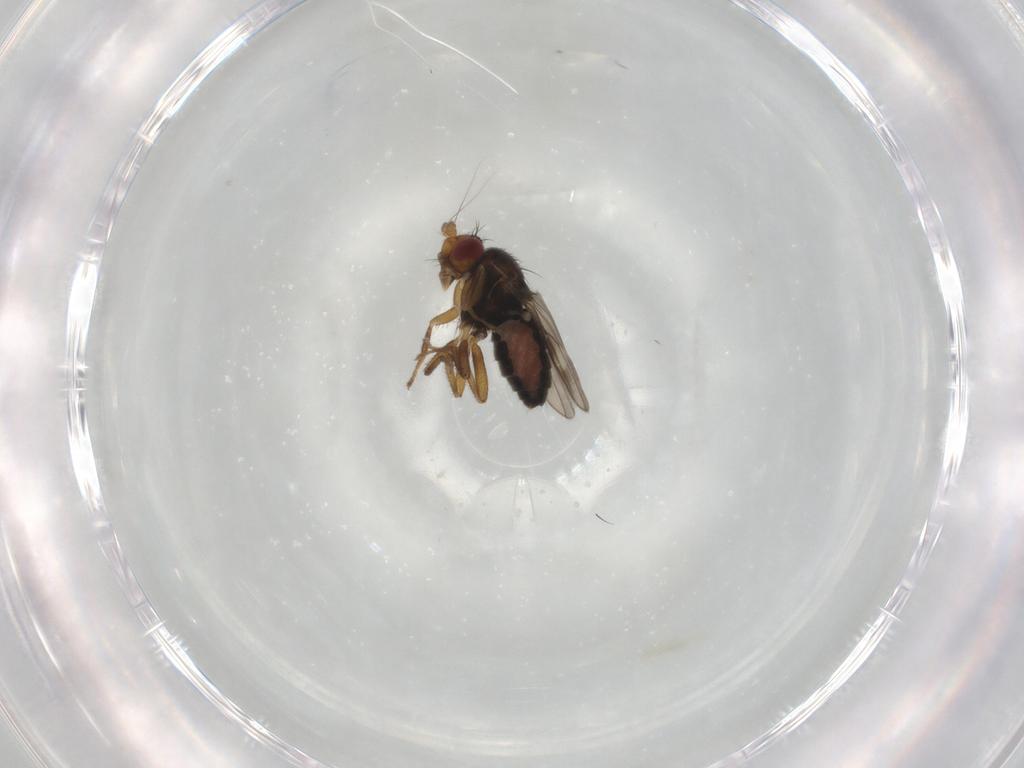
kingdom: Animalia
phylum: Arthropoda
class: Insecta
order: Diptera
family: Sphaeroceridae
